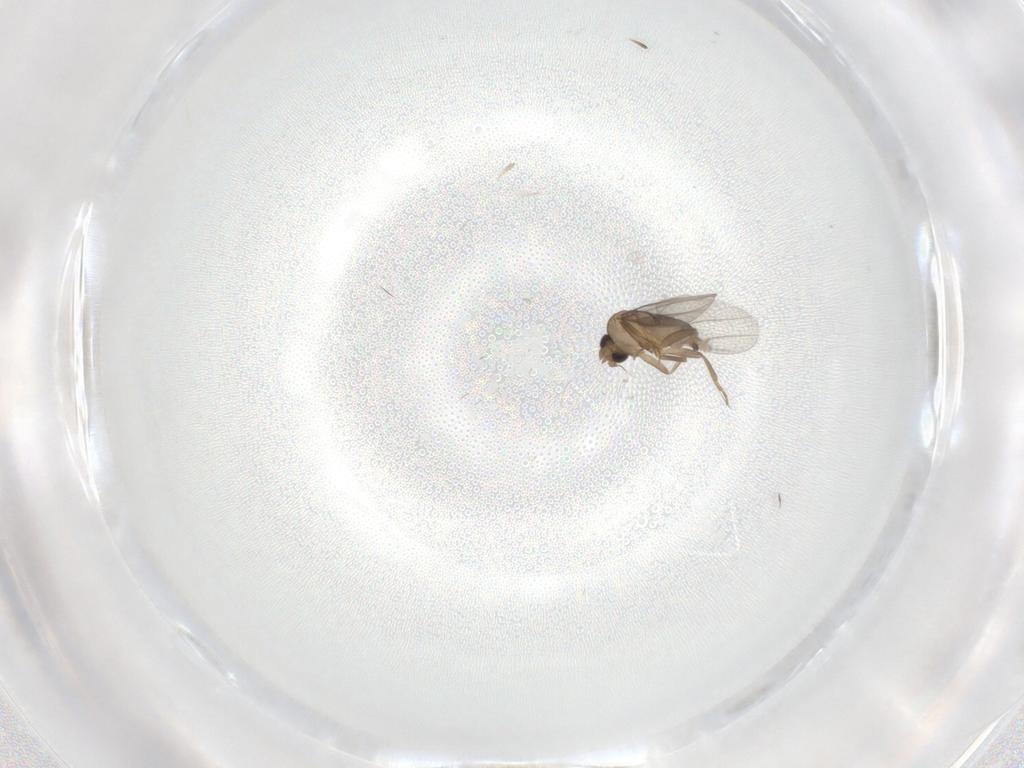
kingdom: Animalia
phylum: Arthropoda
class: Insecta
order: Diptera
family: Chironomidae
